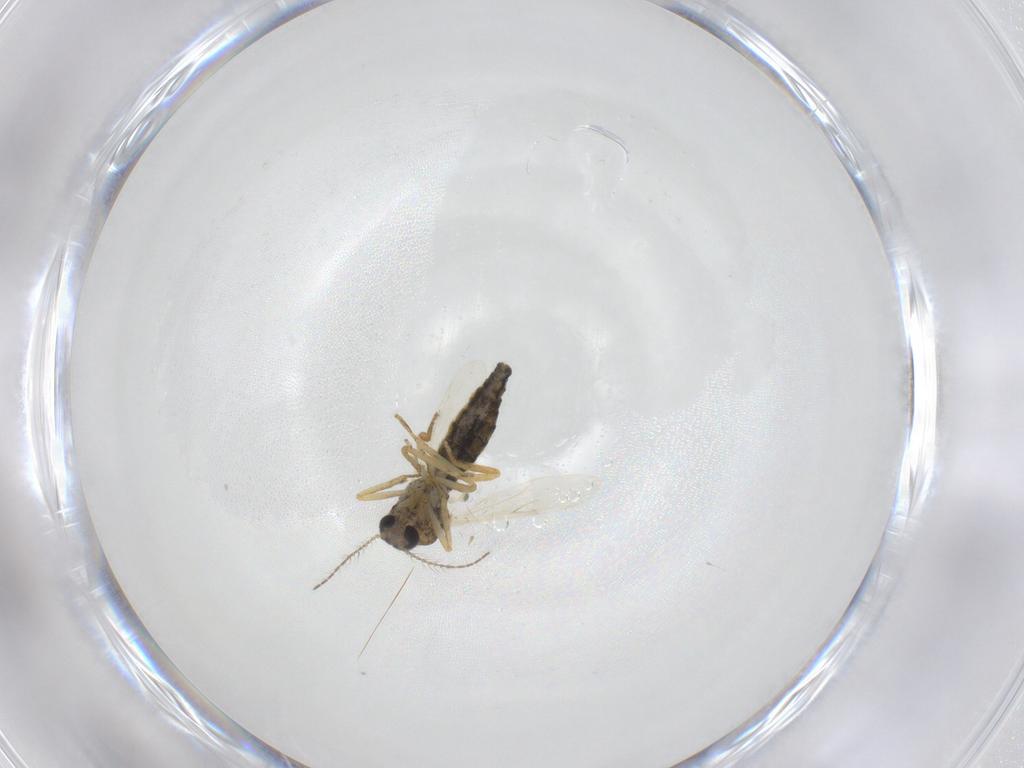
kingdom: Animalia
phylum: Arthropoda
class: Insecta
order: Diptera
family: Ceratopogonidae
